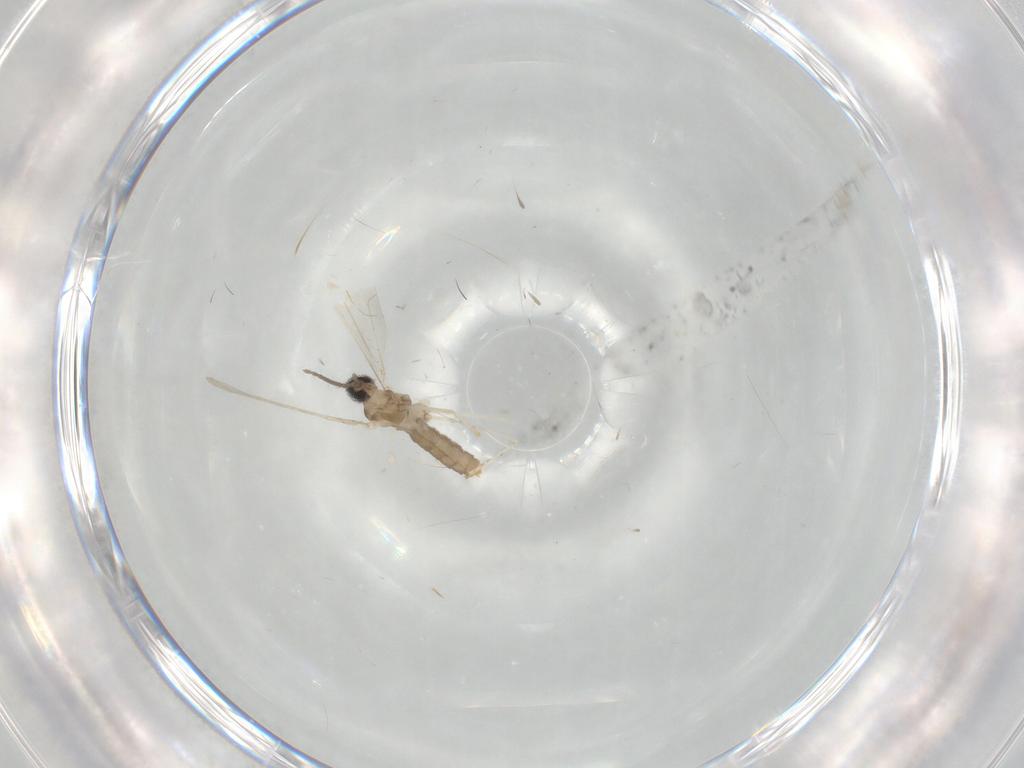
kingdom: Animalia
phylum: Arthropoda
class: Insecta
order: Diptera
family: Cecidomyiidae
